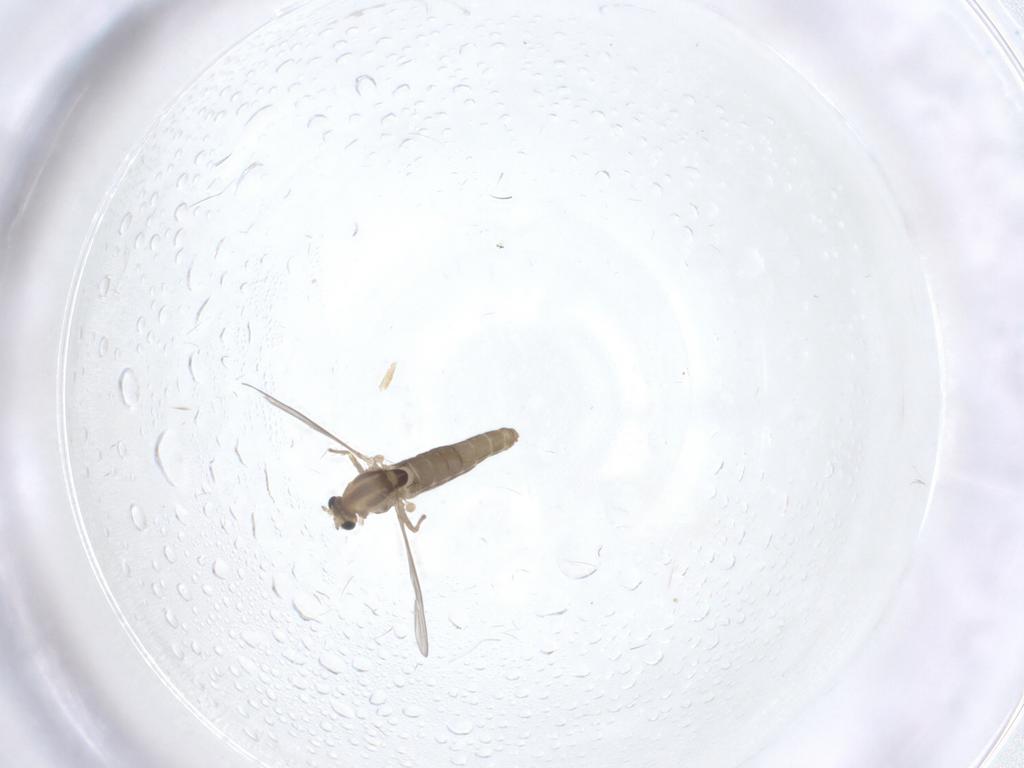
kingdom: Animalia
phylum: Arthropoda
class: Insecta
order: Diptera
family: Chironomidae
